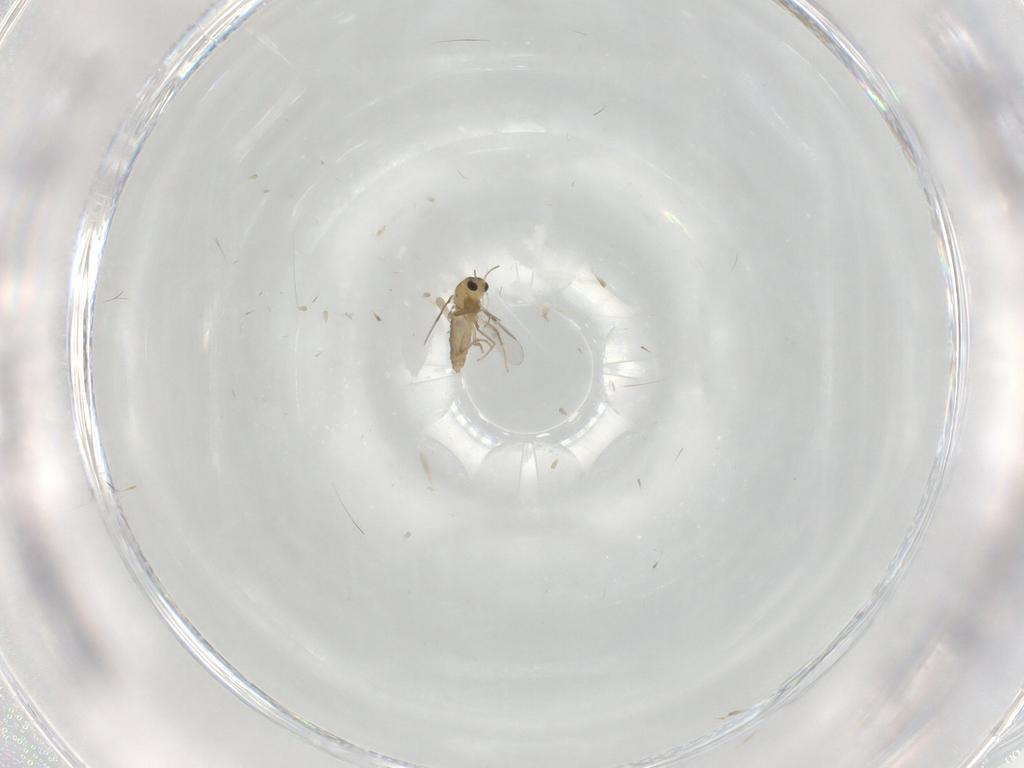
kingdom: Animalia
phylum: Arthropoda
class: Insecta
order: Diptera
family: Chironomidae
